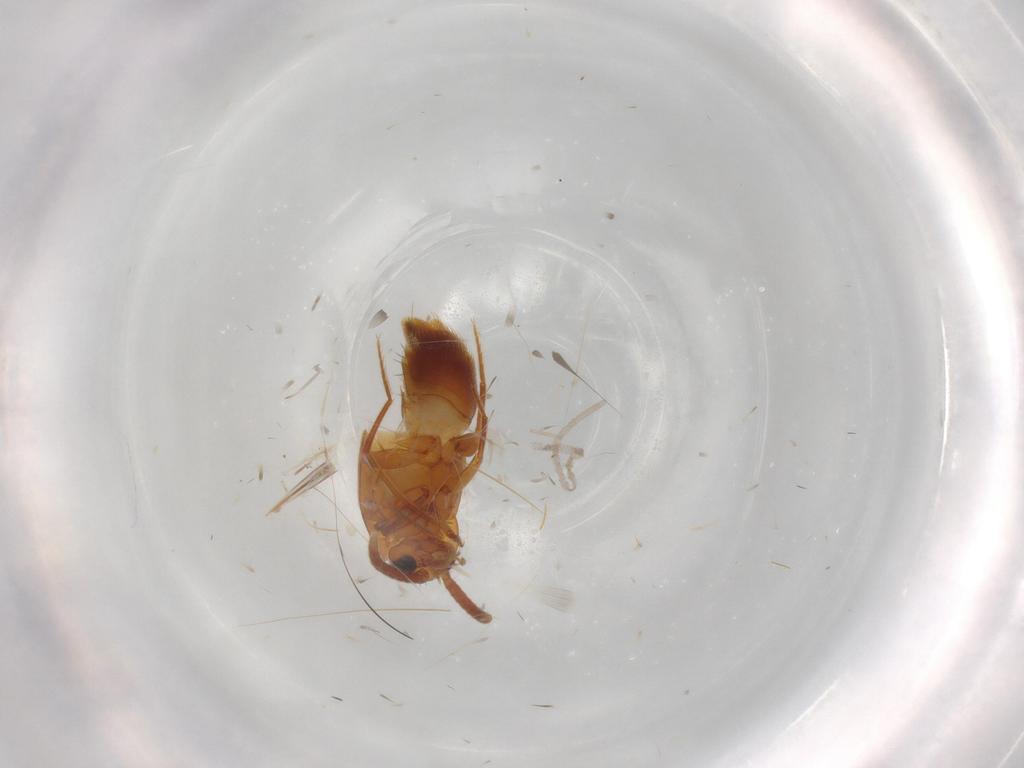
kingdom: Animalia
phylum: Arthropoda
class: Insecta
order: Coleoptera
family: Staphylinidae
